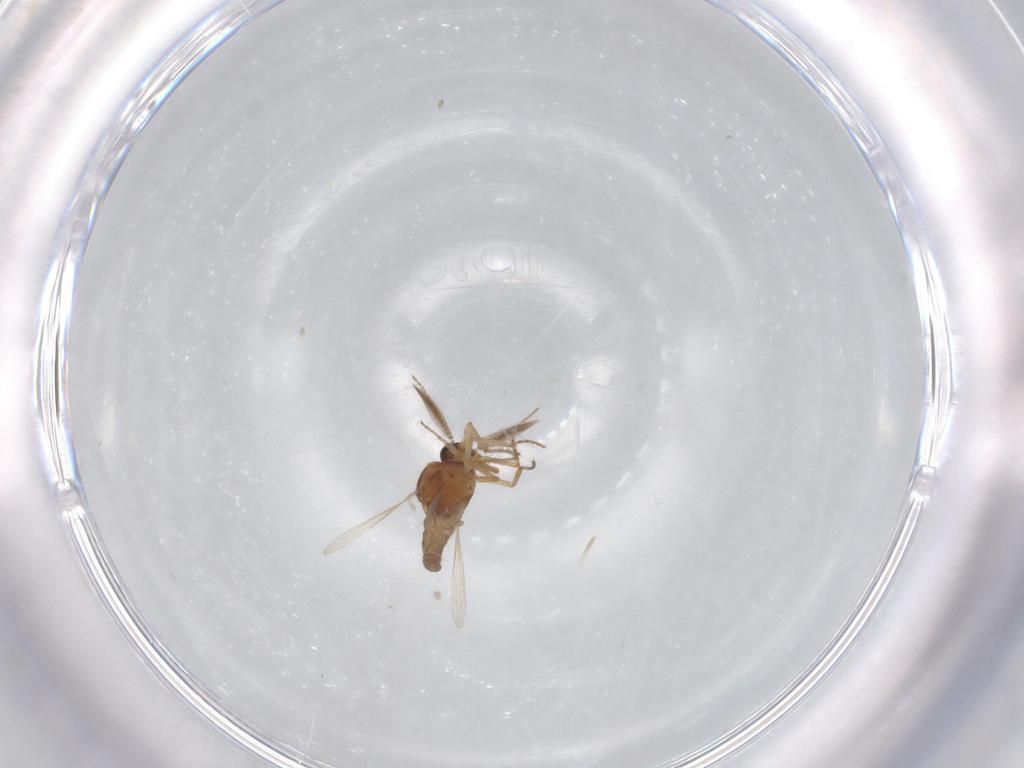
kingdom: Animalia
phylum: Arthropoda
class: Insecta
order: Diptera
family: Ceratopogonidae
